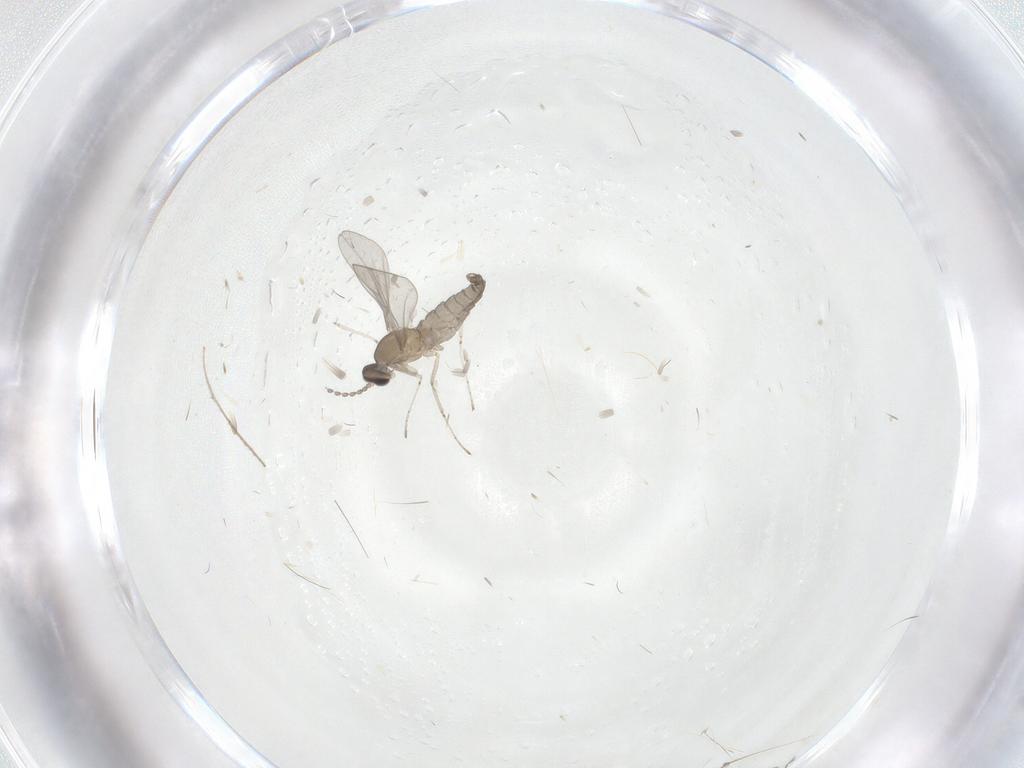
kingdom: Animalia
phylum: Arthropoda
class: Insecta
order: Diptera
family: Cecidomyiidae
